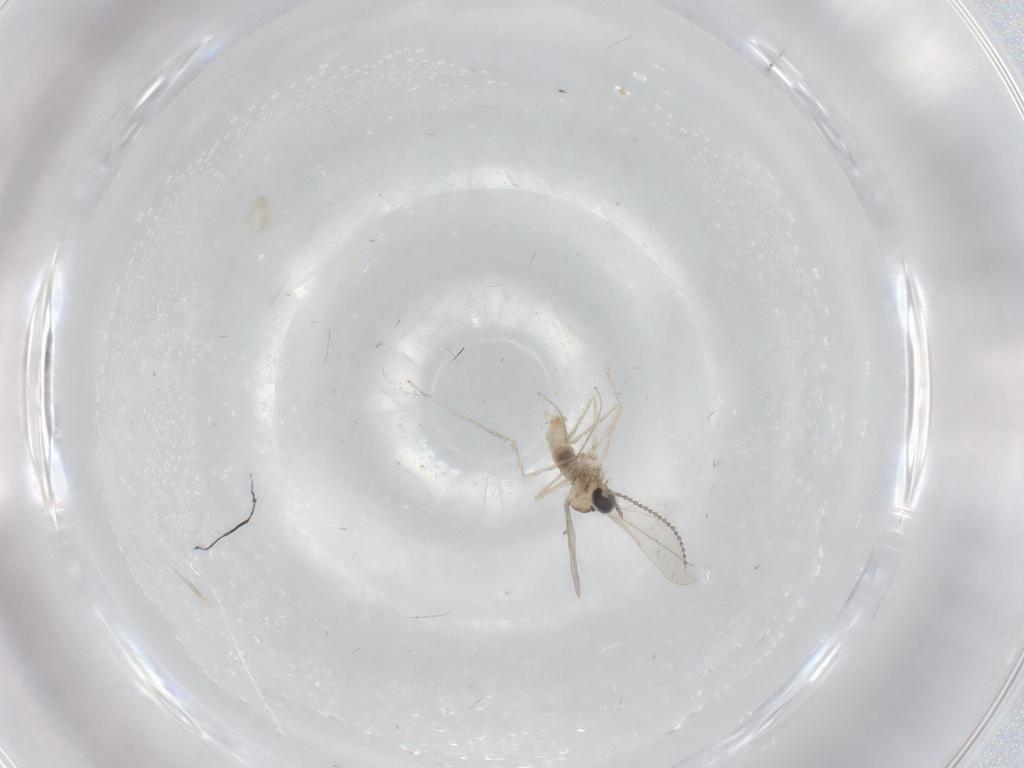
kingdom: Animalia
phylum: Arthropoda
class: Insecta
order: Diptera
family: Cecidomyiidae
